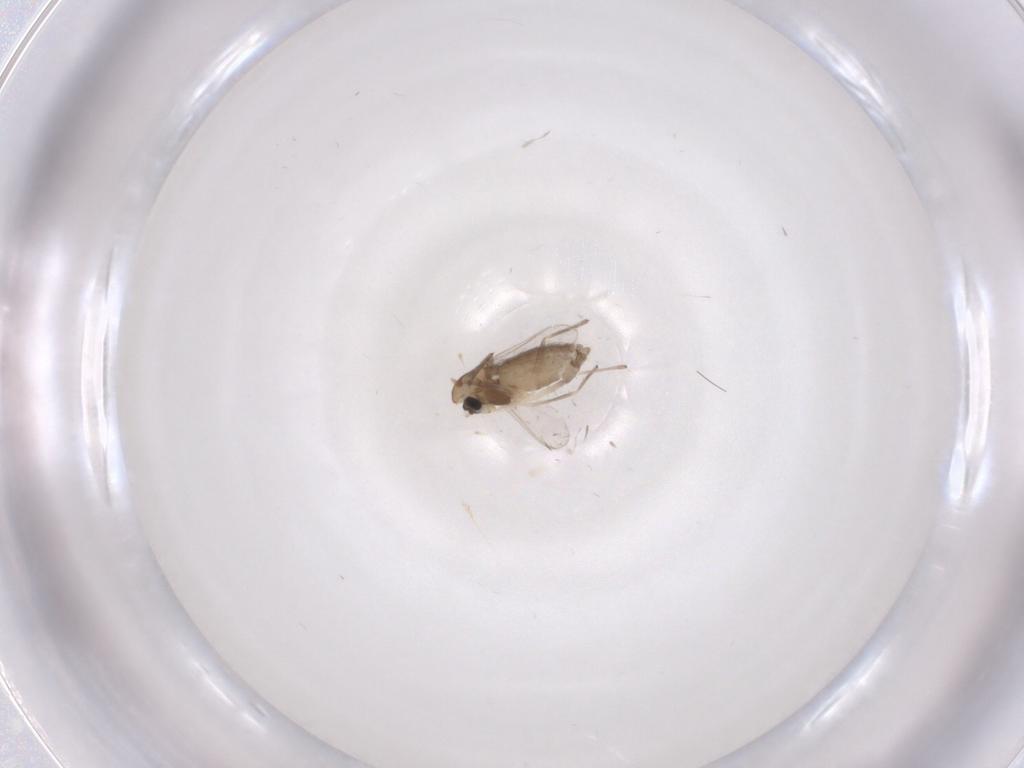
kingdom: Animalia
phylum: Arthropoda
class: Insecta
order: Diptera
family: Chironomidae
